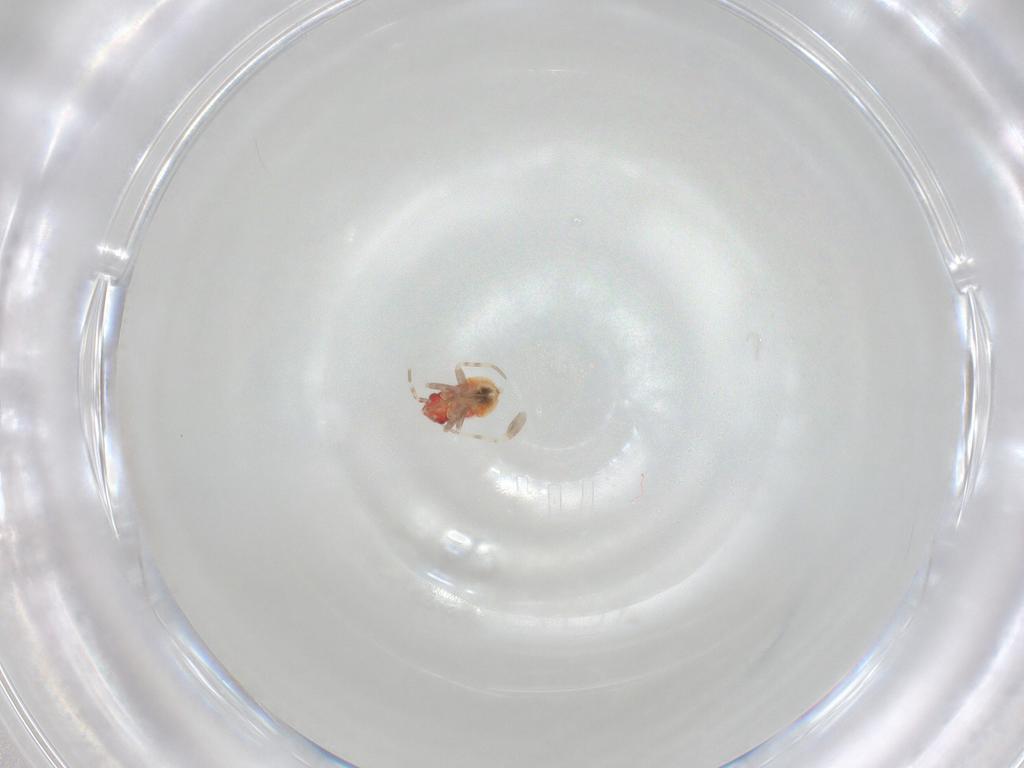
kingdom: Animalia
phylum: Arthropoda
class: Insecta
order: Hemiptera
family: Miridae
